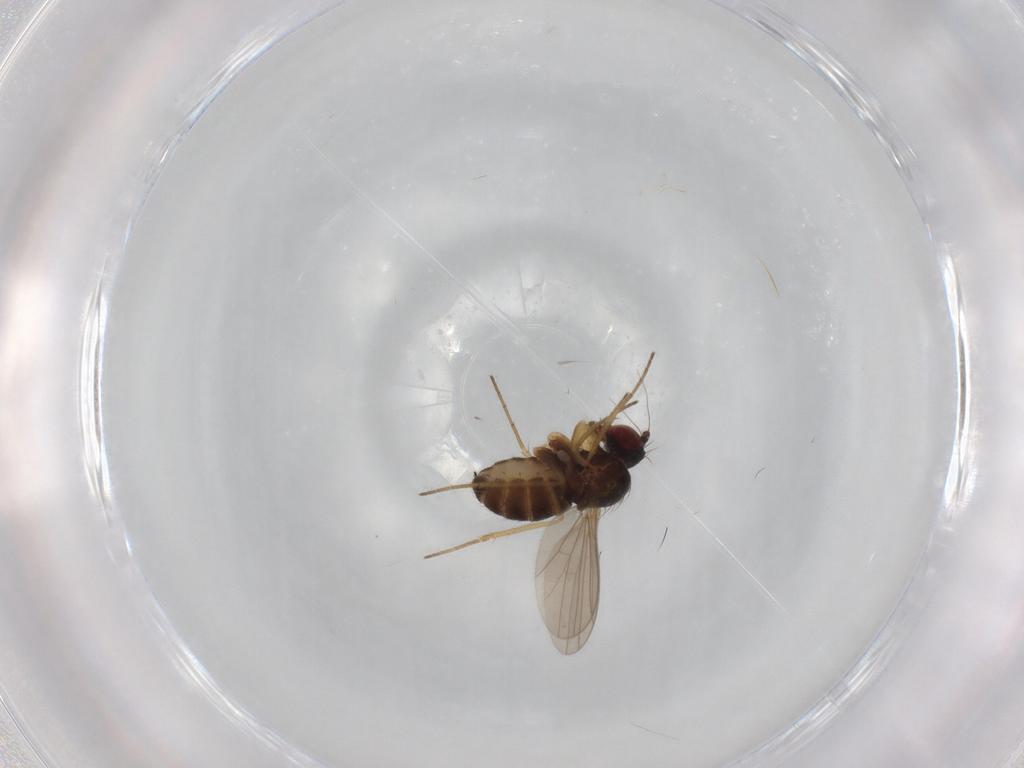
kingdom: Animalia
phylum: Arthropoda
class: Insecta
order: Diptera
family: Dolichopodidae
